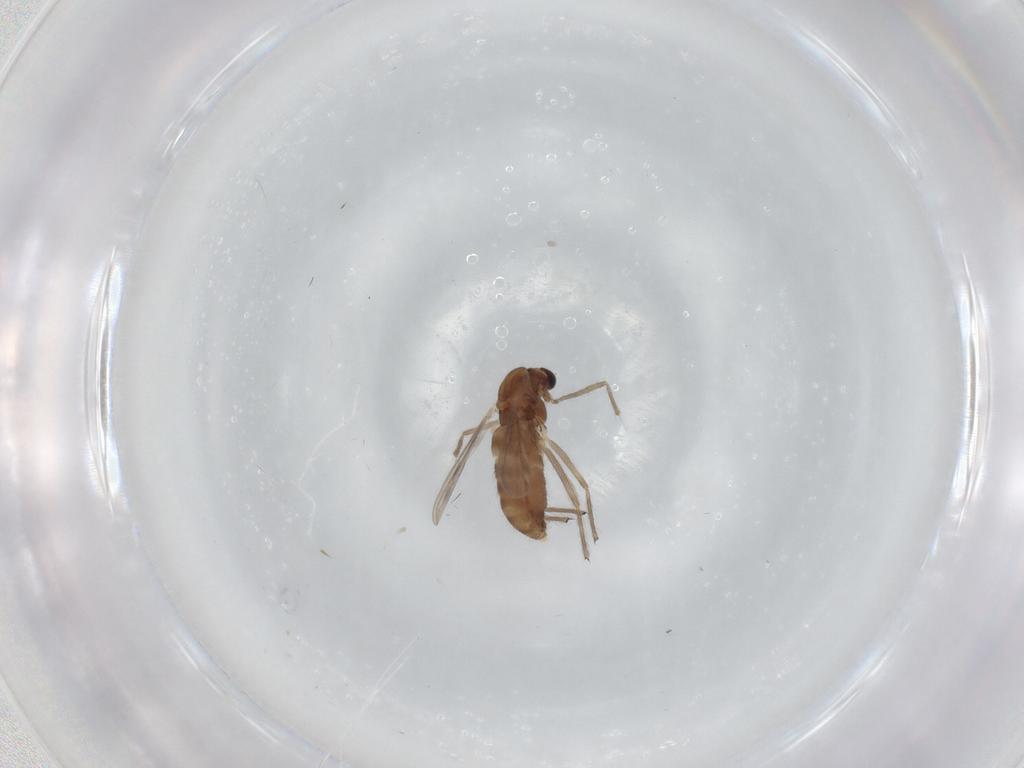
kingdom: Animalia
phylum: Arthropoda
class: Insecta
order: Diptera
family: Chironomidae
